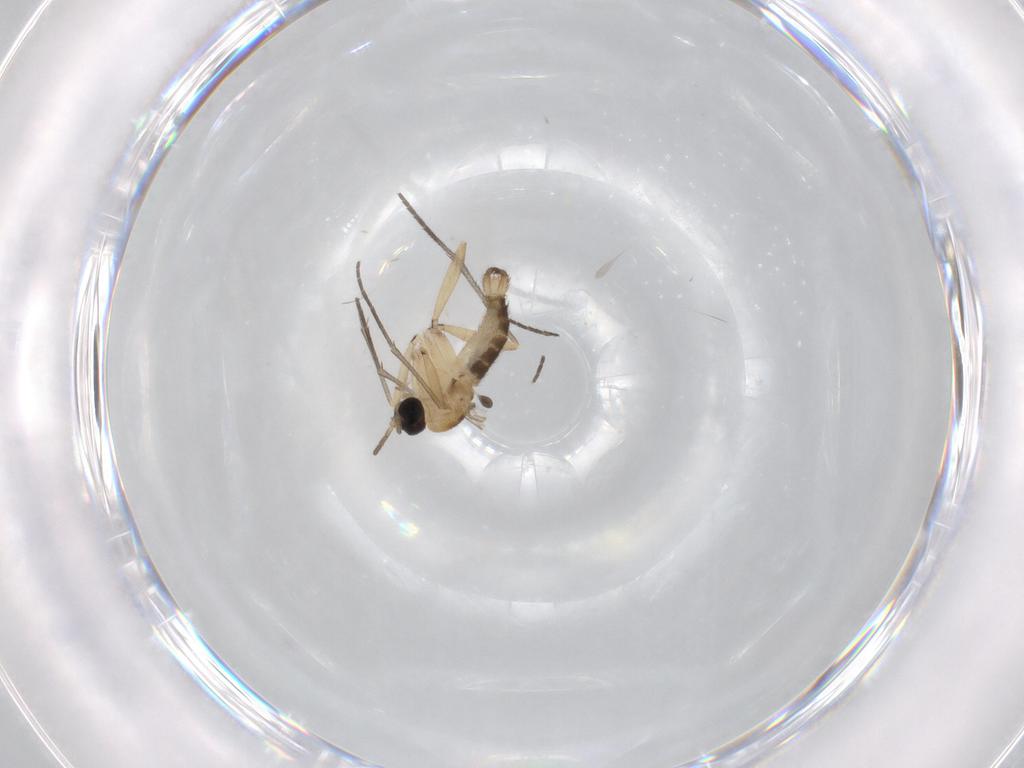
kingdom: Animalia
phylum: Arthropoda
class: Insecta
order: Diptera
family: Sciaridae
